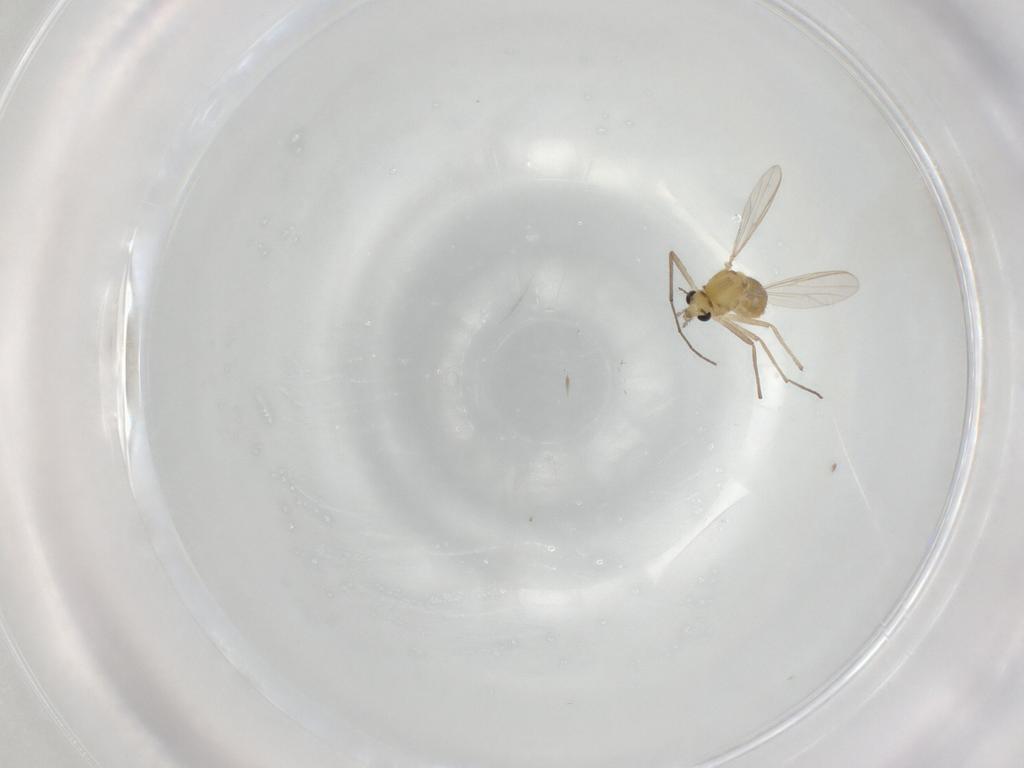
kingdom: Animalia
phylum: Arthropoda
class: Insecta
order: Diptera
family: Chironomidae
